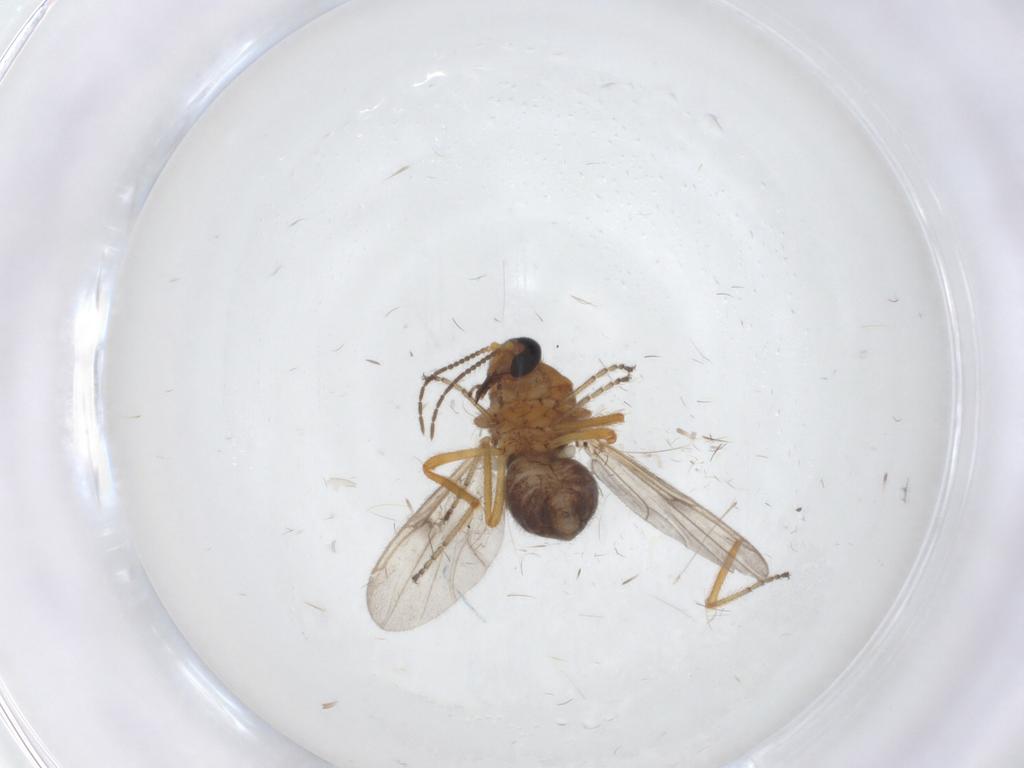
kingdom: Animalia
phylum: Arthropoda
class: Insecta
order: Diptera
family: Ceratopogonidae
